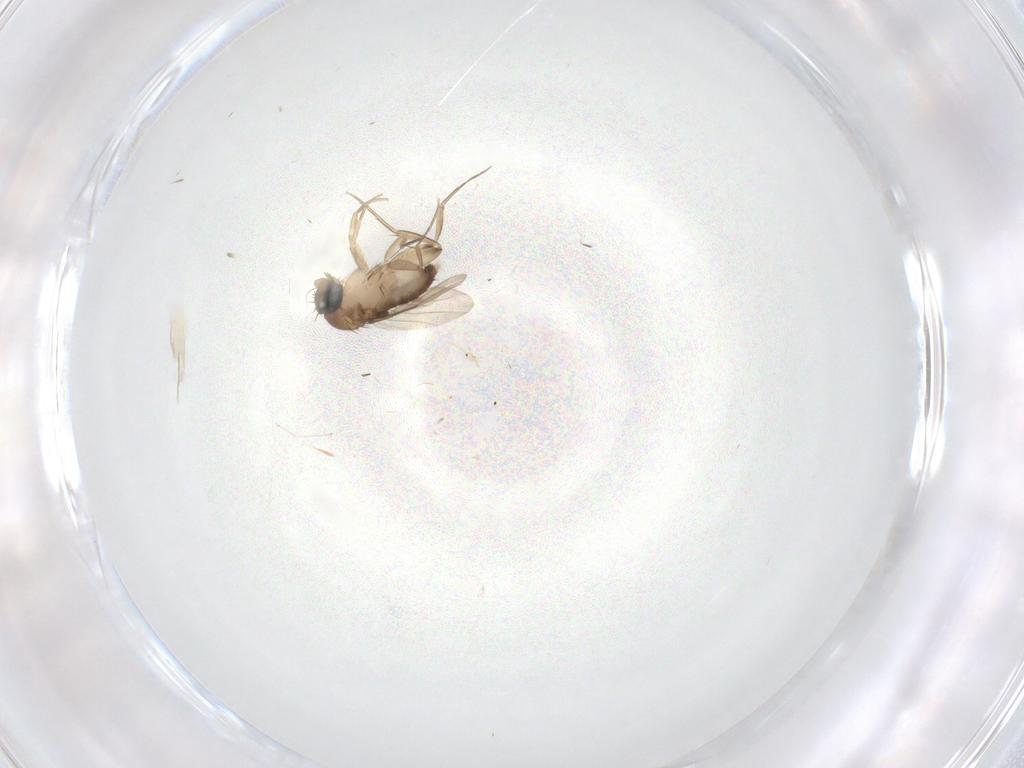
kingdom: Animalia
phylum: Arthropoda
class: Insecta
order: Diptera
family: Phoridae
